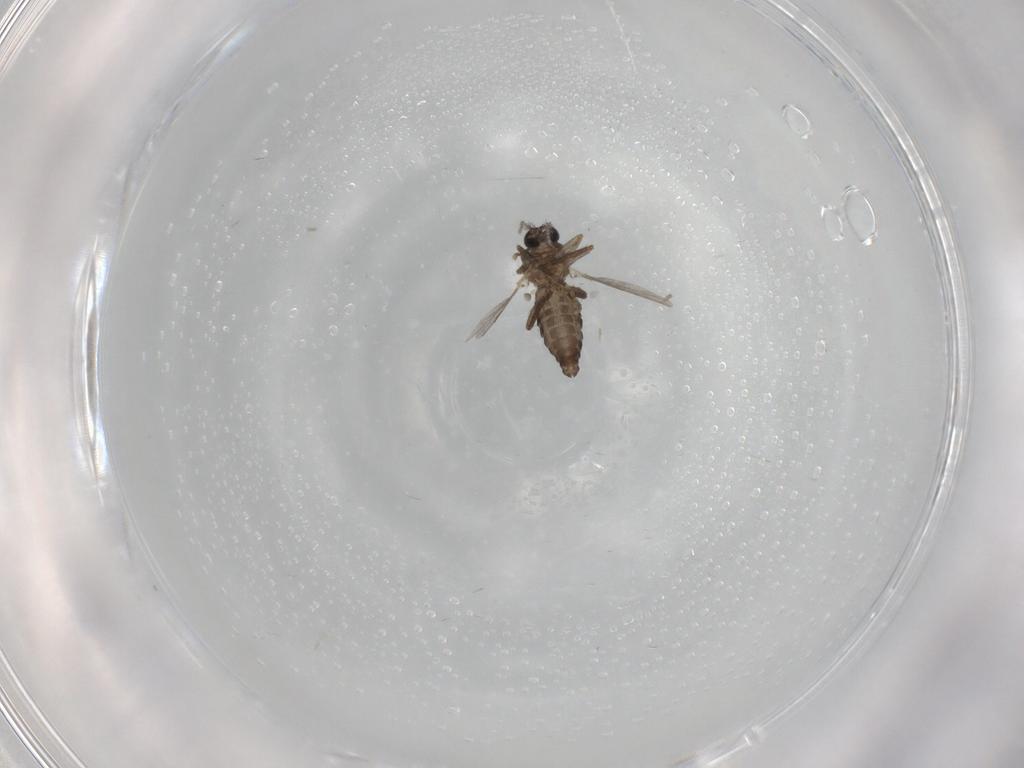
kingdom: Animalia
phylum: Arthropoda
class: Insecta
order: Diptera
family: Ceratopogonidae
